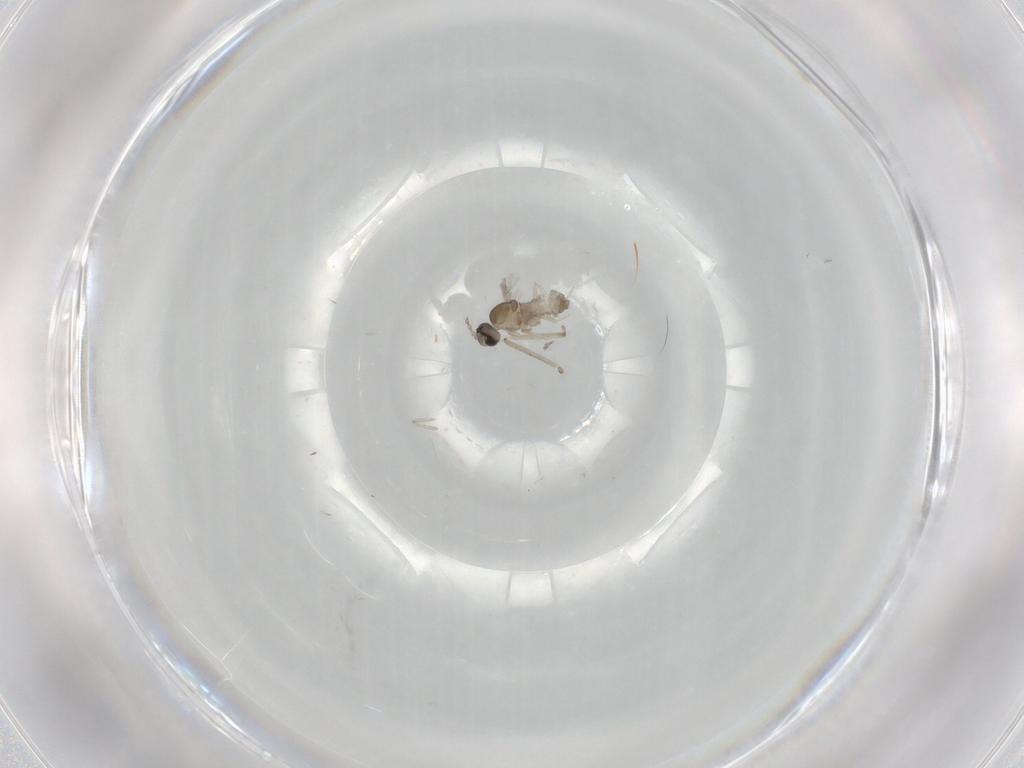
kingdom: Animalia
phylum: Arthropoda
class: Insecta
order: Diptera
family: Cecidomyiidae
